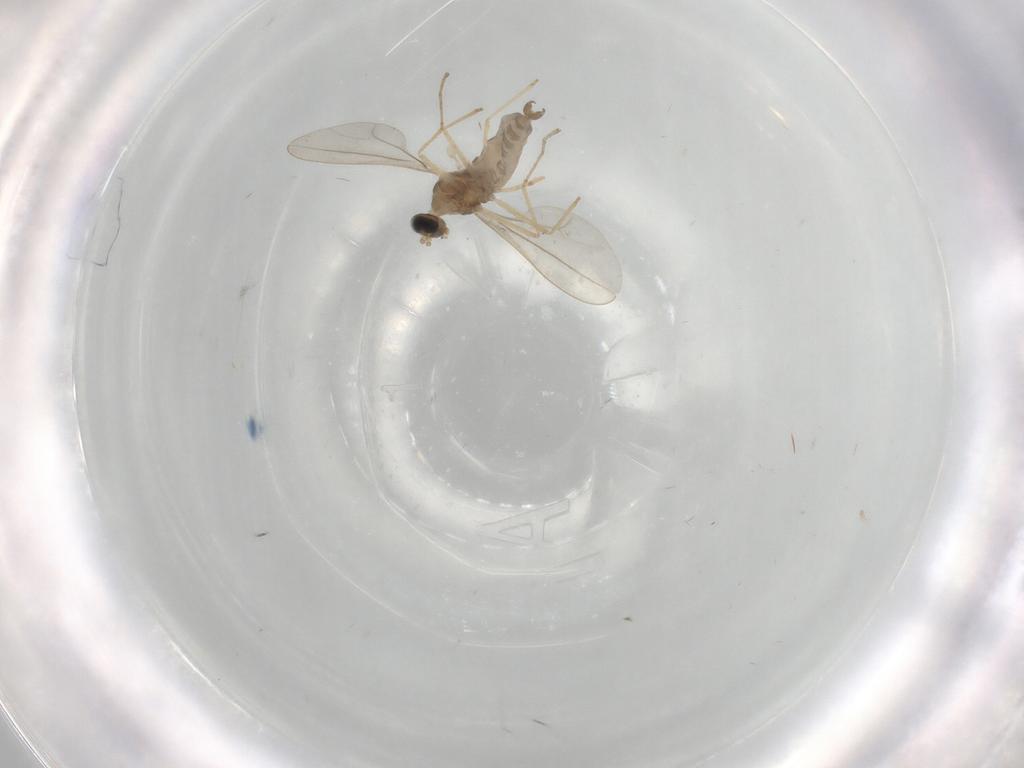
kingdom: Animalia
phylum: Arthropoda
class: Insecta
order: Diptera
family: Cecidomyiidae
